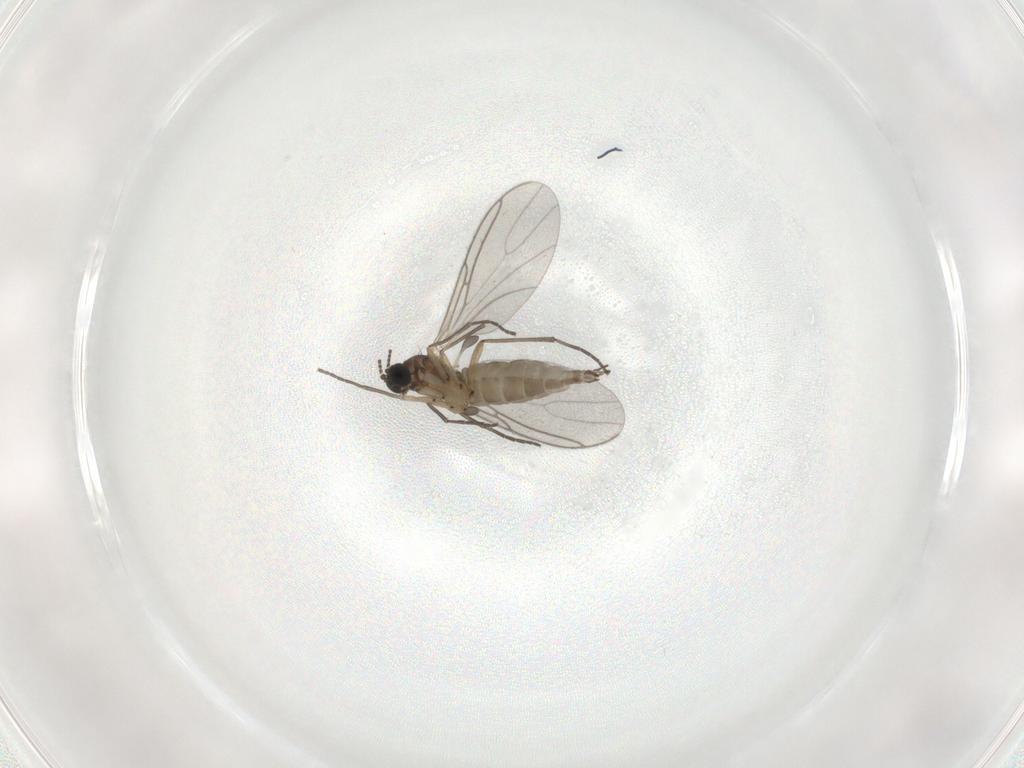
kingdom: Animalia
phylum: Arthropoda
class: Insecta
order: Diptera
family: Sciaridae
